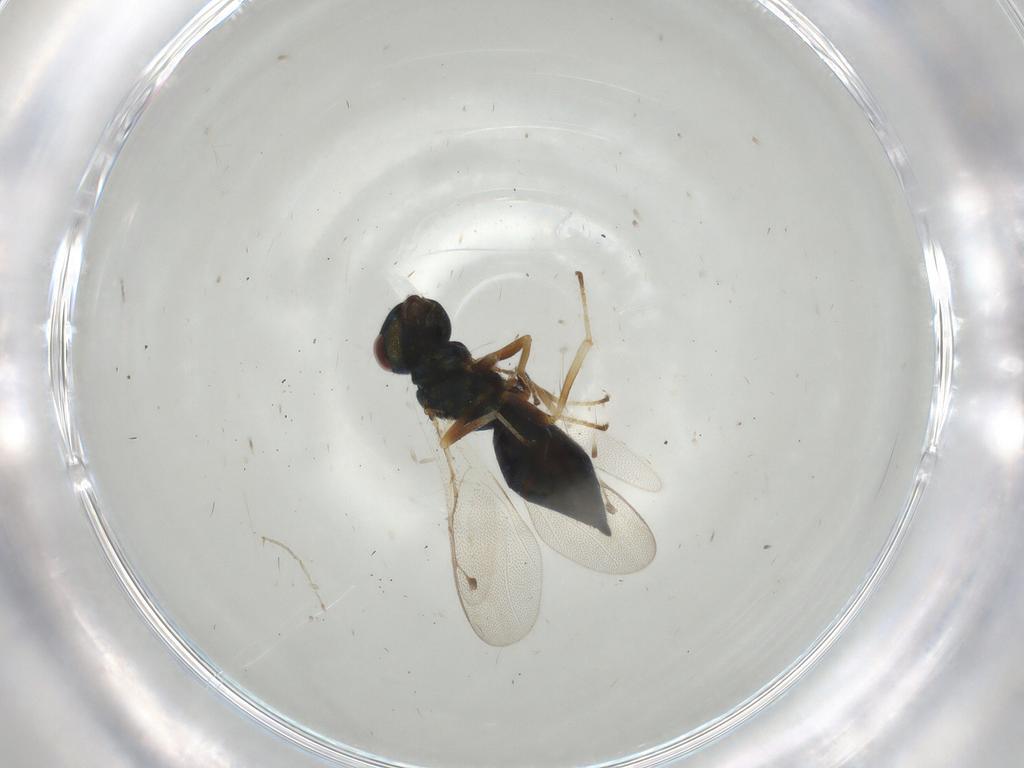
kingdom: Animalia
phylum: Arthropoda
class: Insecta
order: Hymenoptera
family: Pteromalidae
